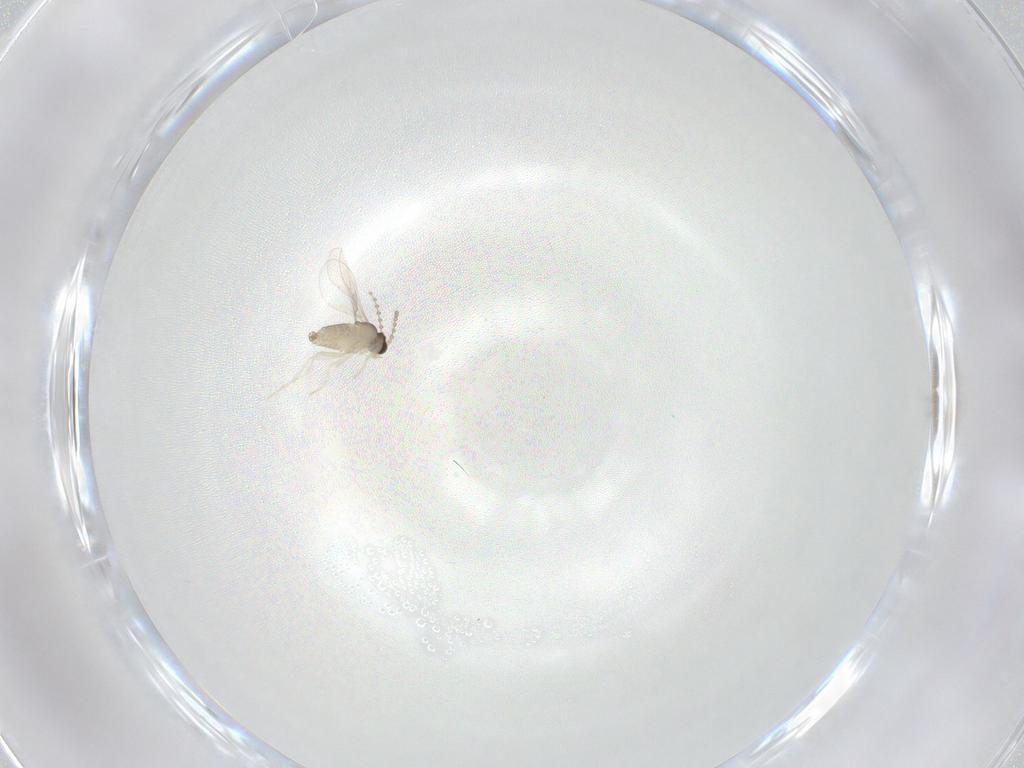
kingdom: Animalia
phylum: Arthropoda
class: Insecta
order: Diptera
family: Cecidomyiidae
